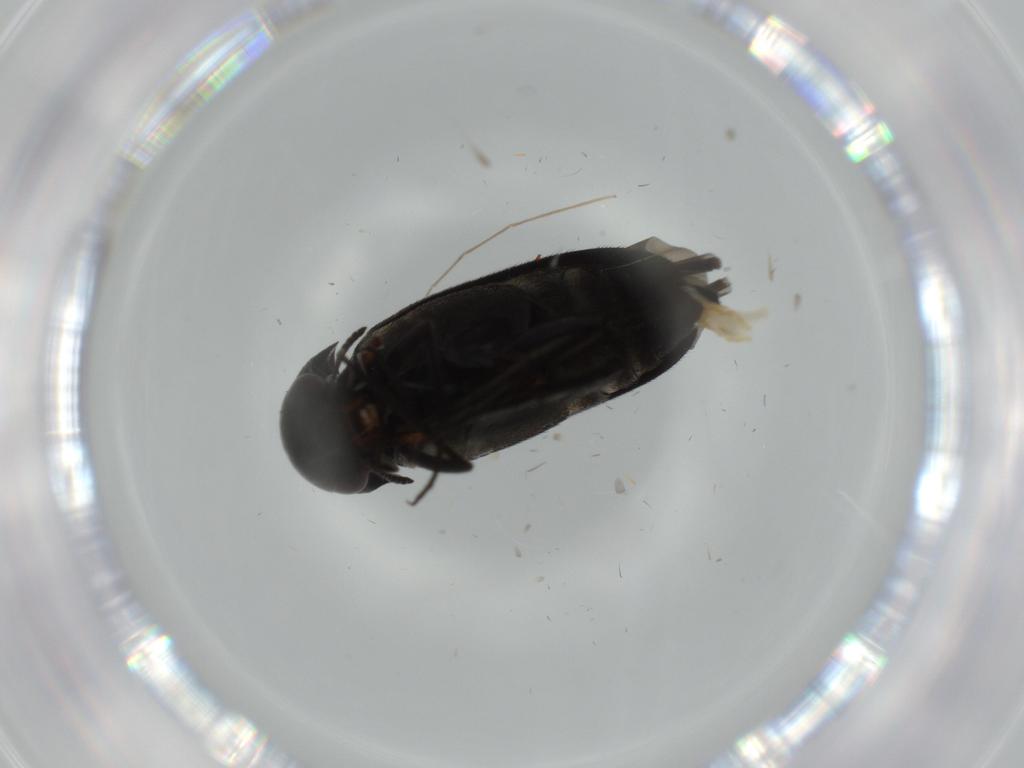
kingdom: Animalia
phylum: Arthropoda
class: Insecta
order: Coleoptera
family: Mordellidae
